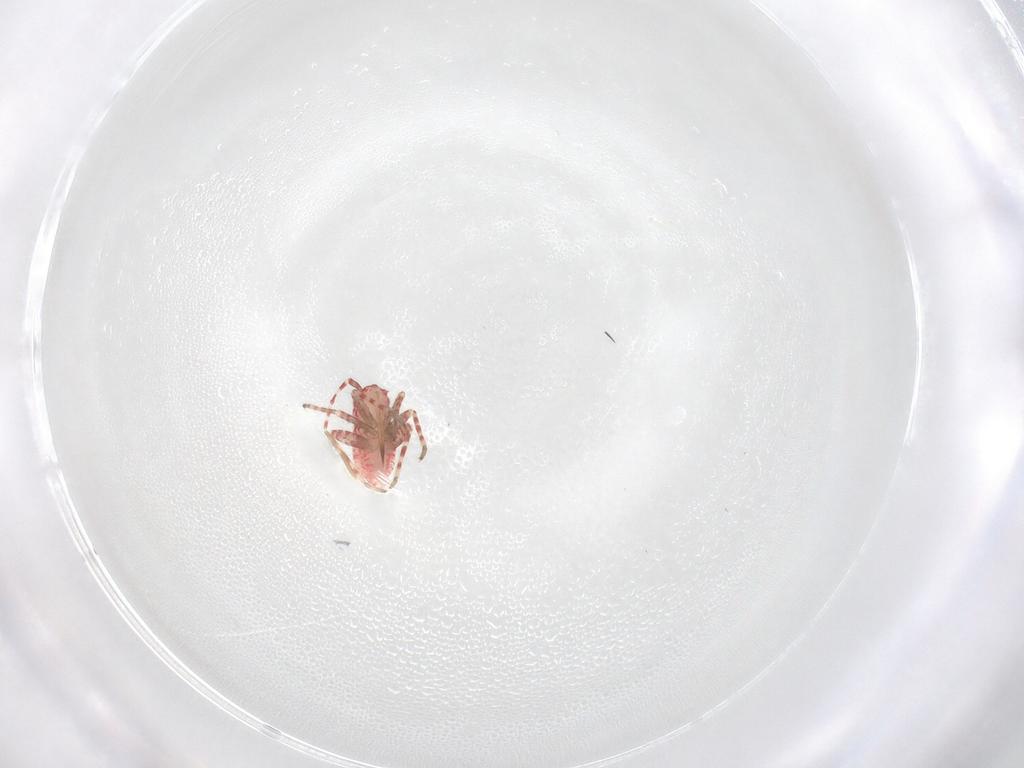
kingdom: Animalia
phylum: Arthropoda
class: Insecta
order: Hemiptera
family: Miridae
